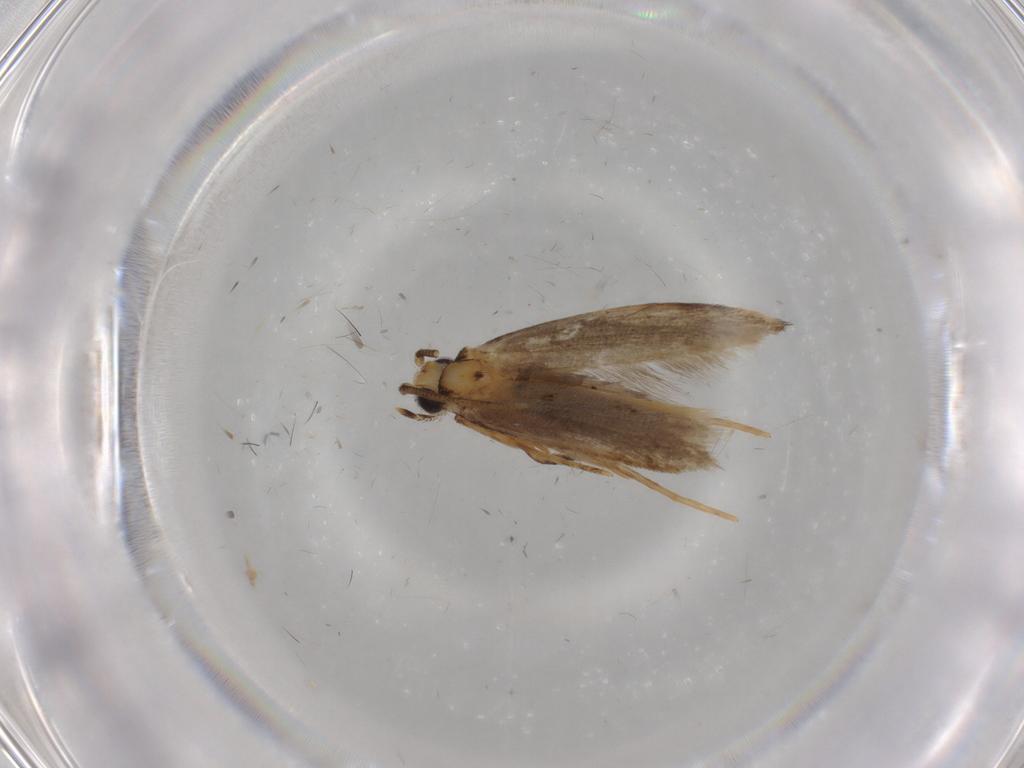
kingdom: Animalia
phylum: Arthropoda
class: Insecta
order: Lepidoptera
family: Tineidae
